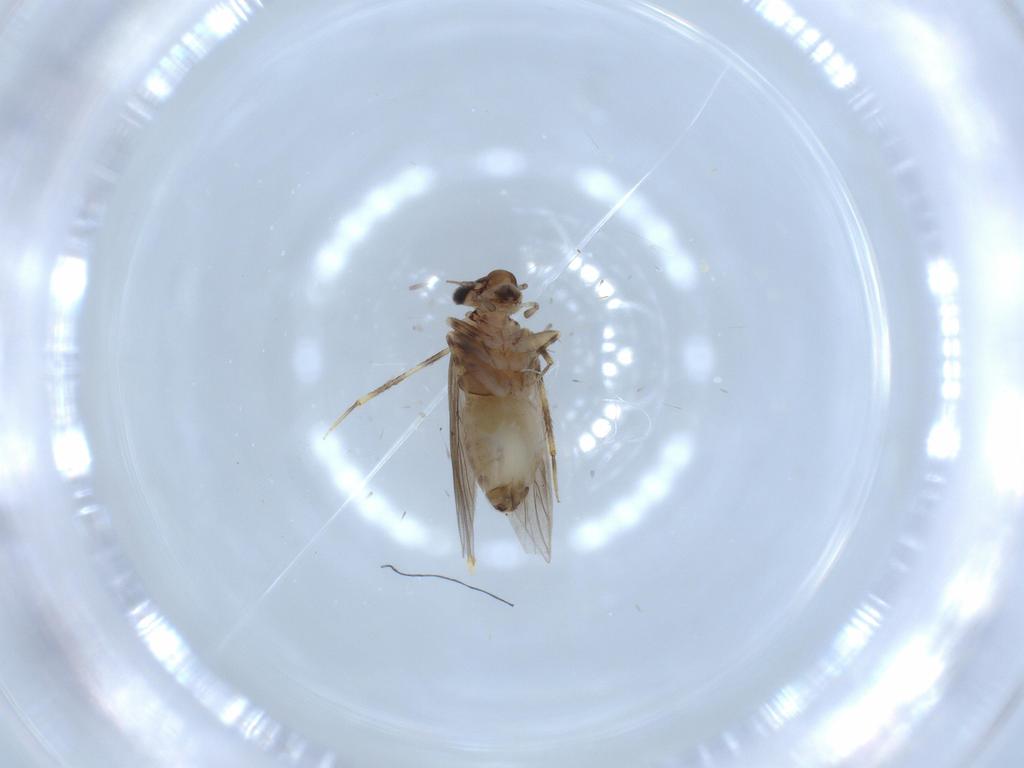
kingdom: Animalia
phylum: Arthropoda
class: Insecta
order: Psocodea
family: Lepidopsocidae
